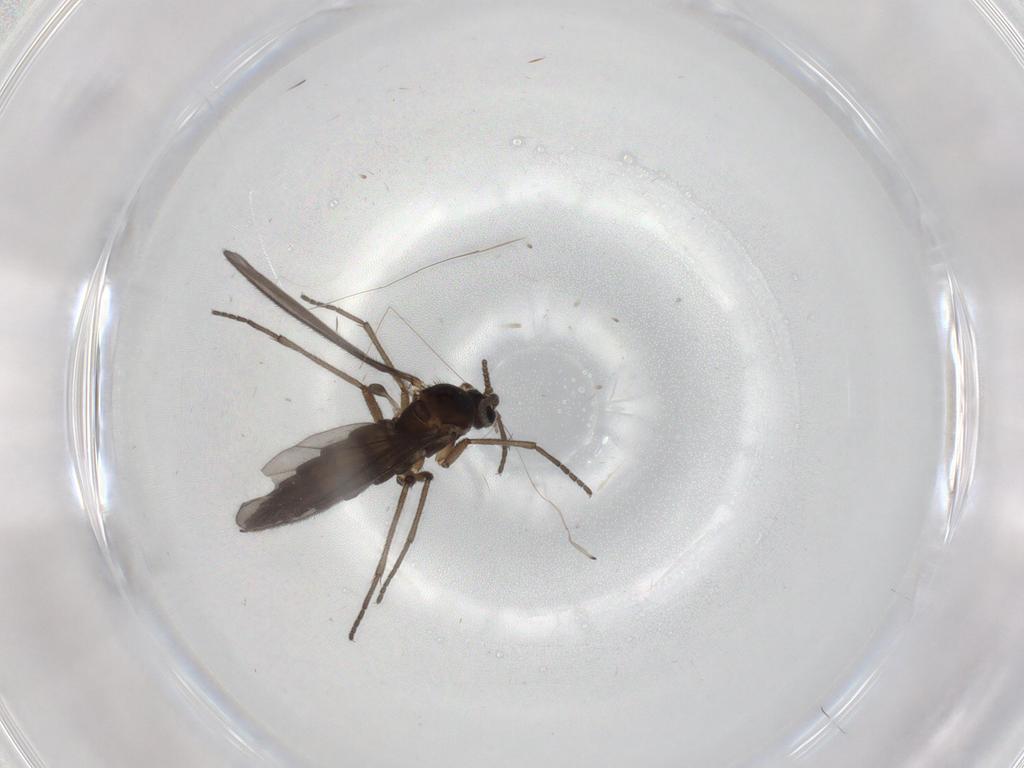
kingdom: Animalia
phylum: Arthropoda
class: Insecta
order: Diptera
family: Sciaridae
